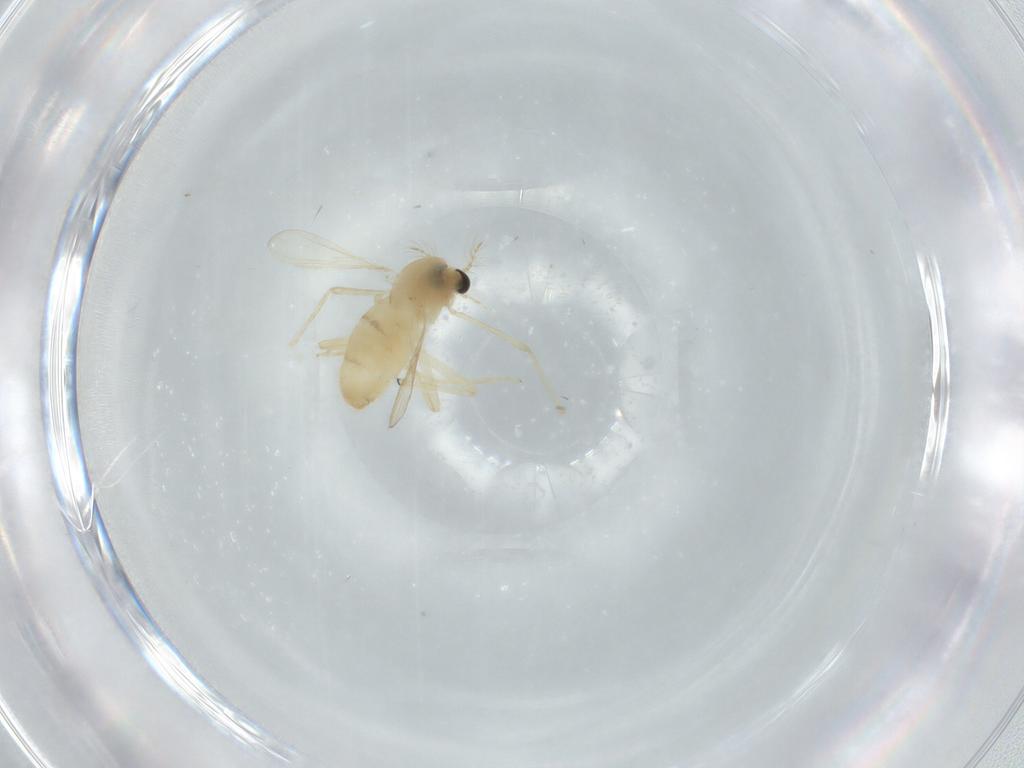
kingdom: Animalia
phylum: Arthropoda
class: Insecta
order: Diptera
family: Chironomidae
